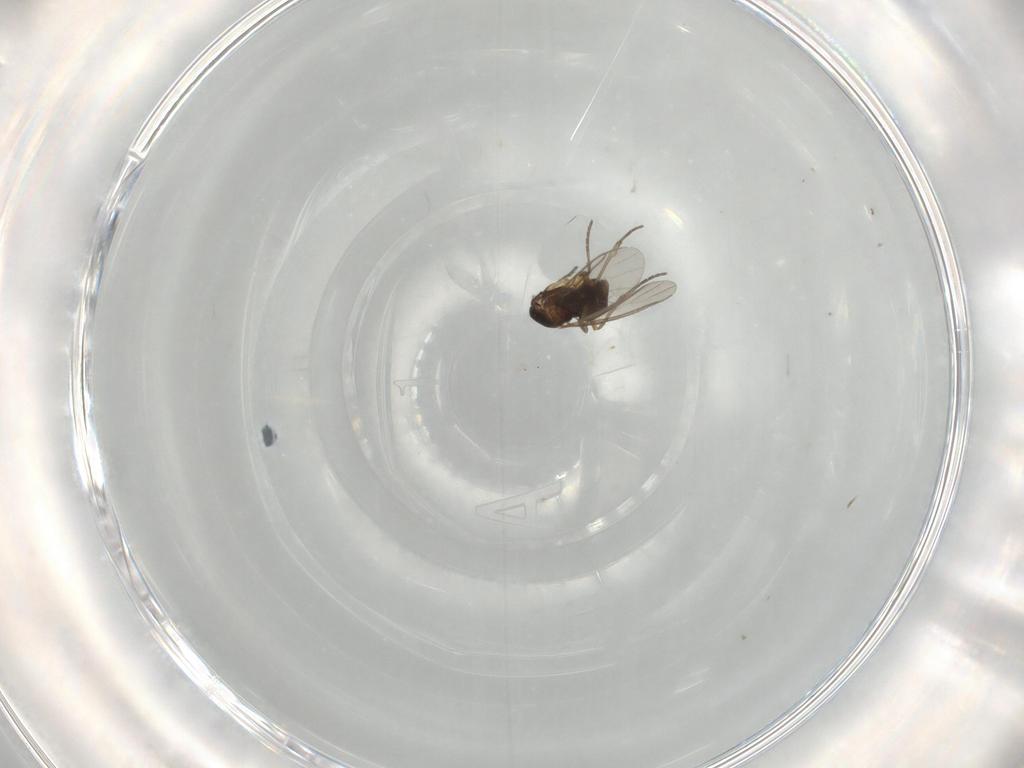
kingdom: Animalia
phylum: Arthropoda
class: Insecta
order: Diptera
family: Sciaridae
